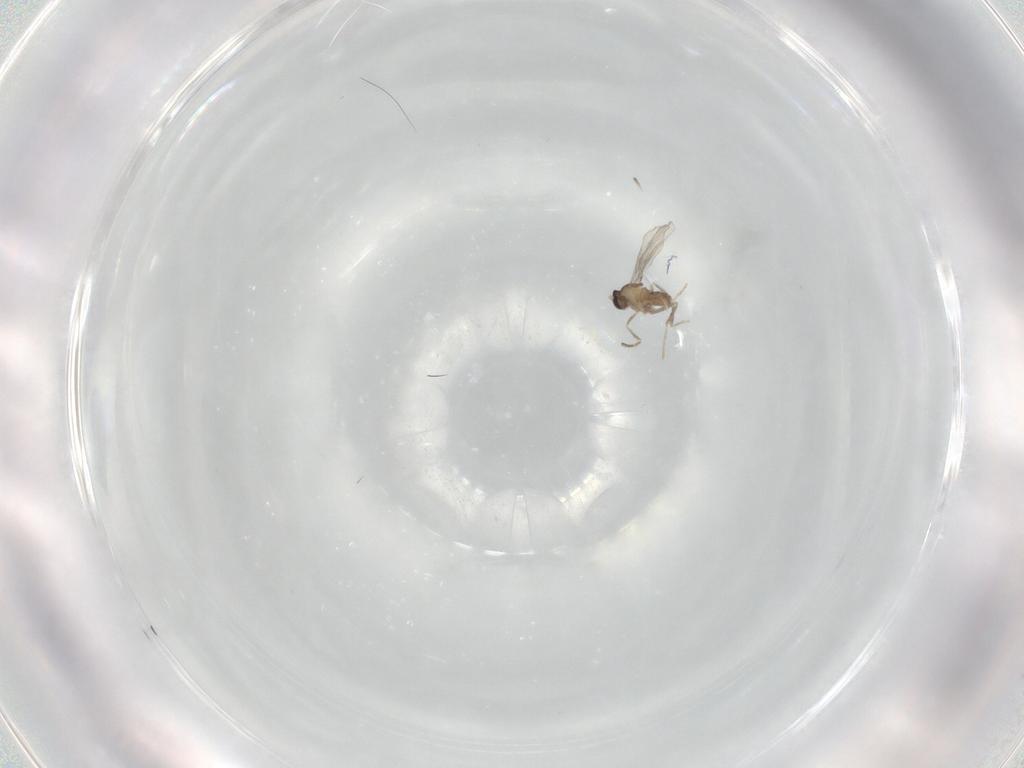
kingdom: Animalia
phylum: Arthropoda
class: Insecta
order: Diptera
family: Cecidomyiidae
